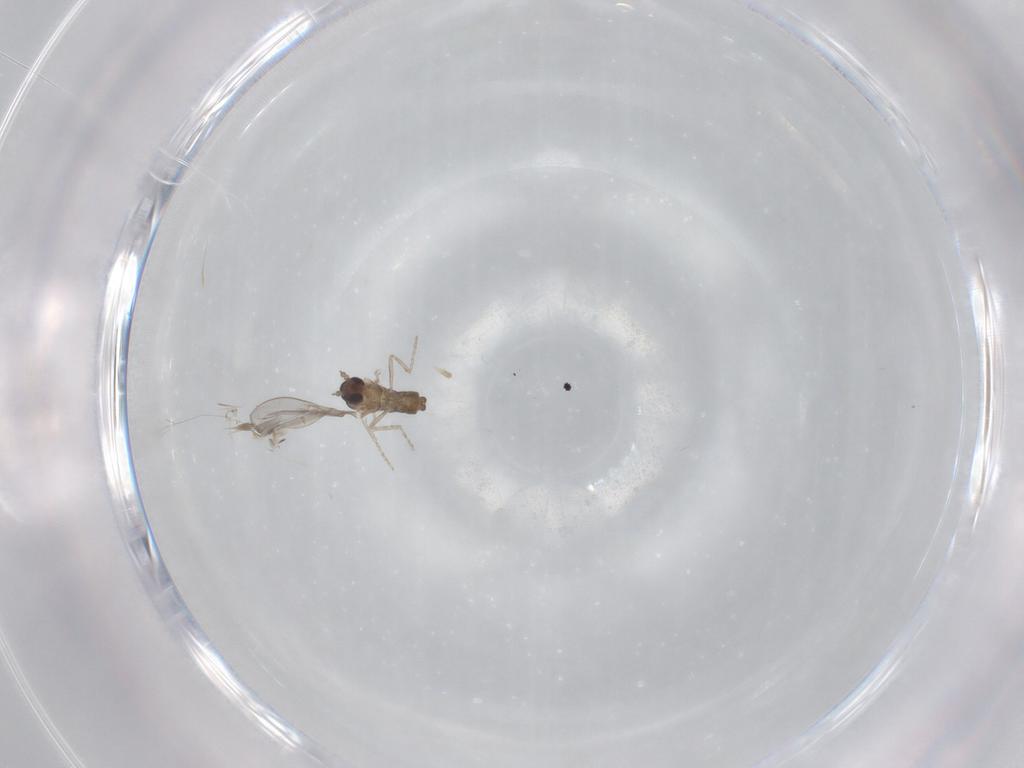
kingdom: Animalia
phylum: Arthropoda
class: Insecta
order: Diptera
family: Cecidomyiidae
